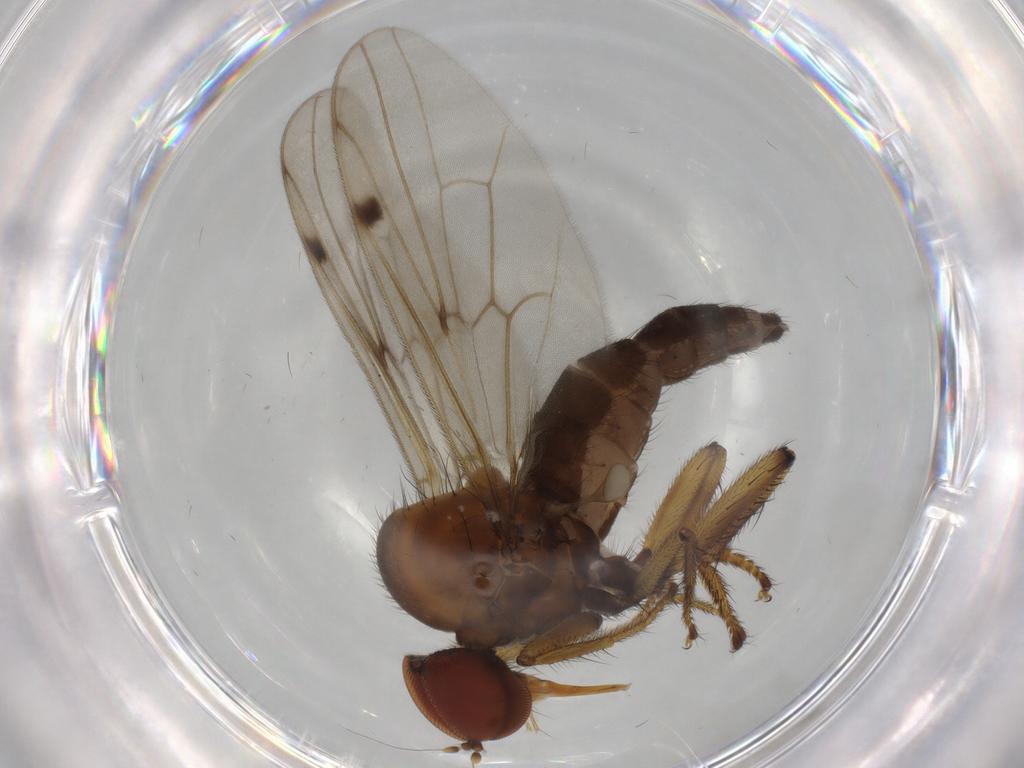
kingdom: Animalia
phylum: Arthropoda
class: Insecta
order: Diptera
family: Hybotidae
